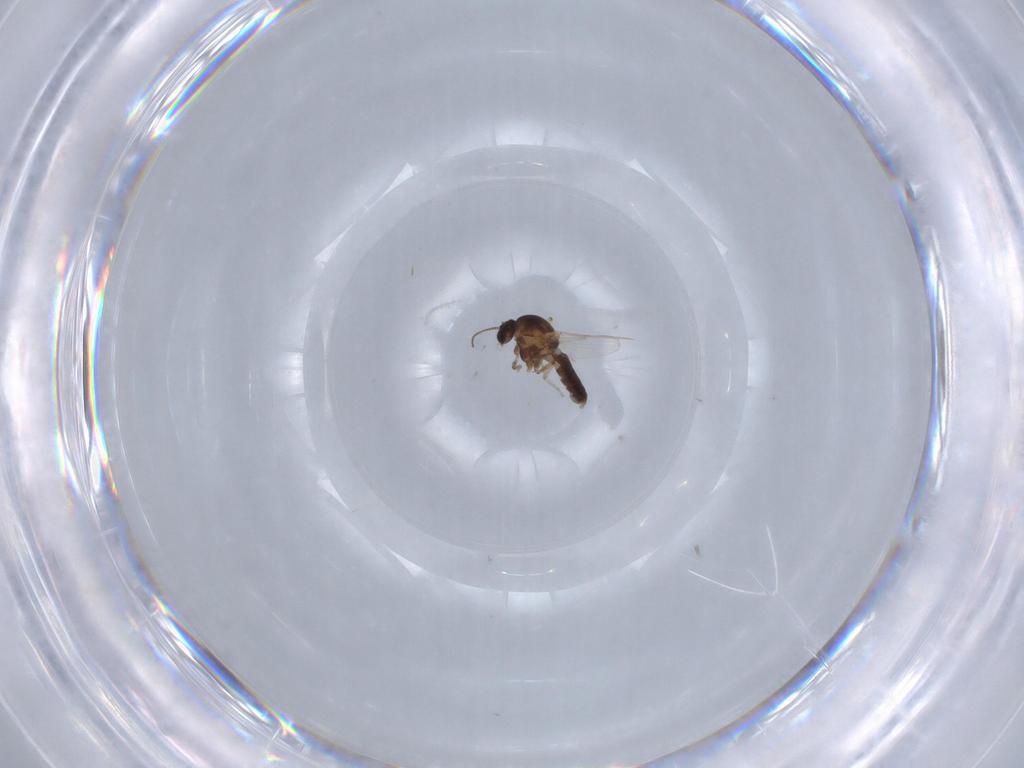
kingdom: Animalia
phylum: Arthropoda
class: Insecta
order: Diptera
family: Ceratopogonidae
